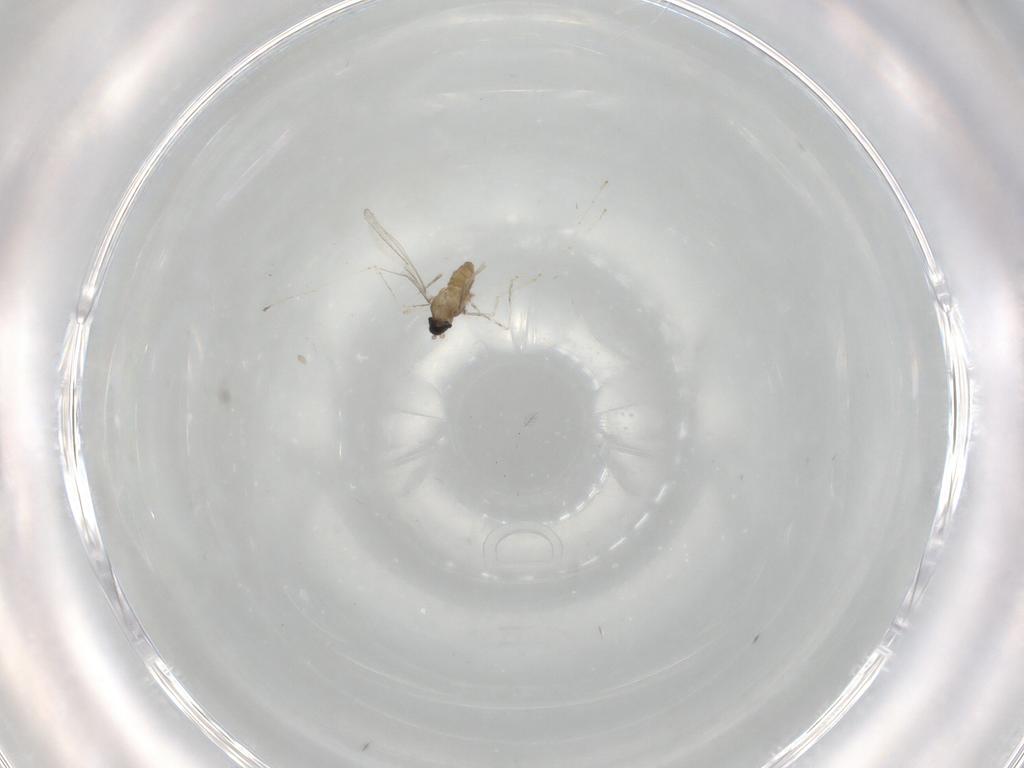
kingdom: Animalia
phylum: Arthropoda
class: Insecta
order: Diptera
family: Cecidomyiidae
